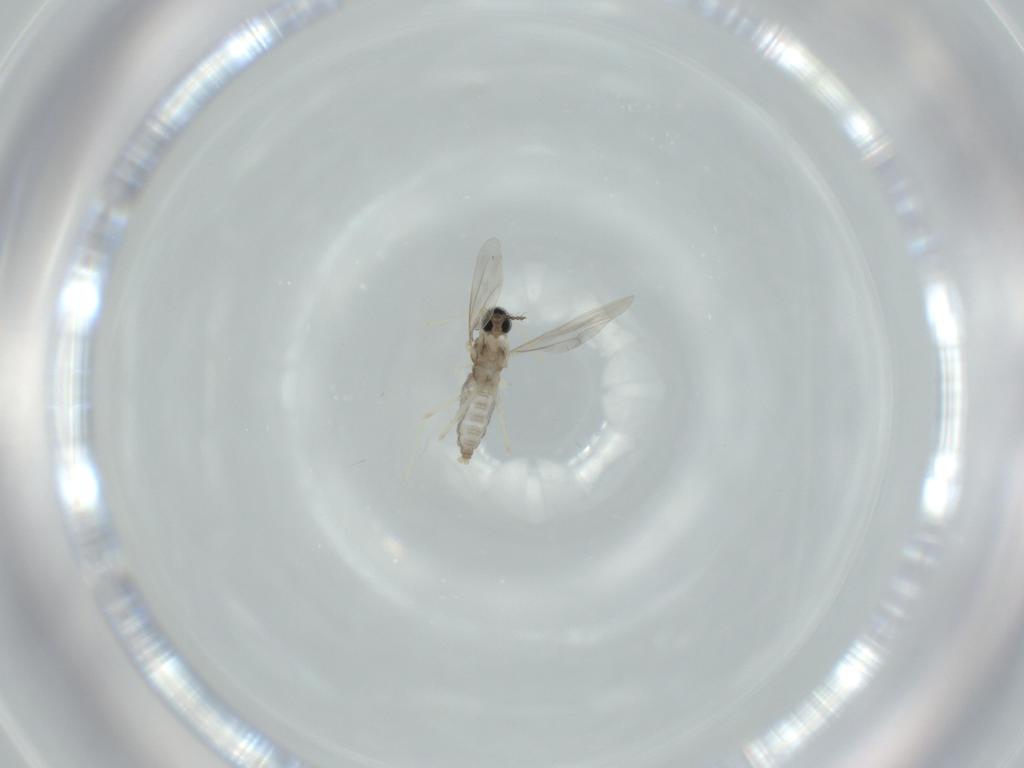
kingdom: Animalia
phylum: Arthropoda
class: Insecta
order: Diptera
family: Cecidomyiidae
